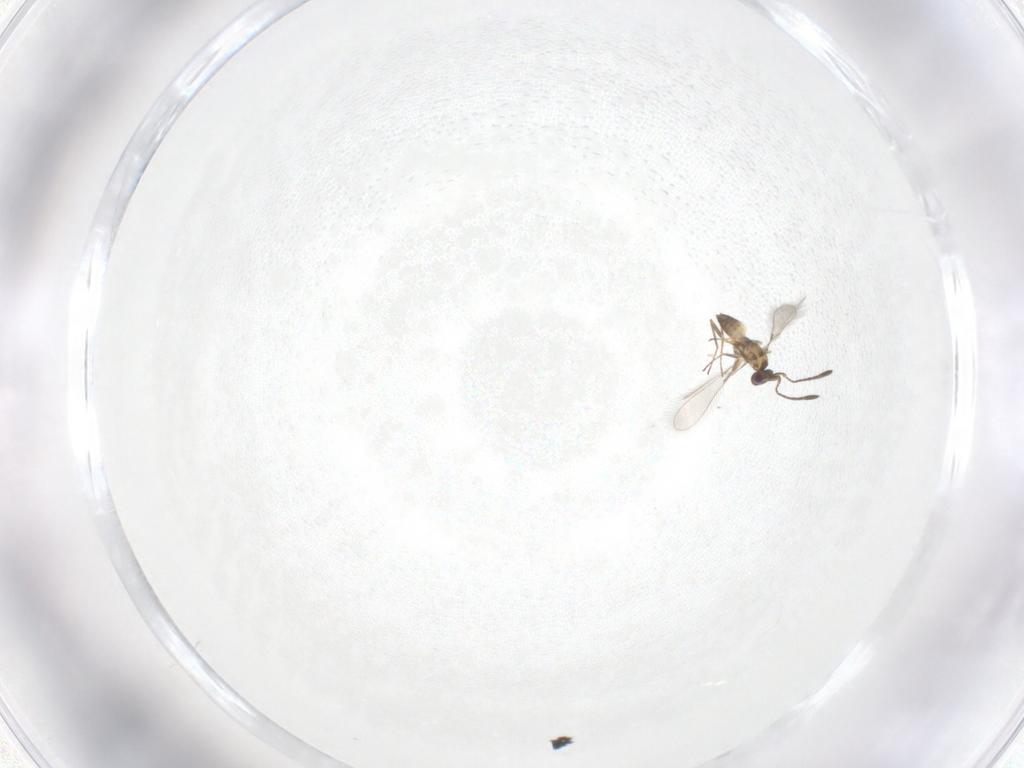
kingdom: Animalia
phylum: Arthropoda
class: Insecta
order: Hymenoptera
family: Mymaridae
